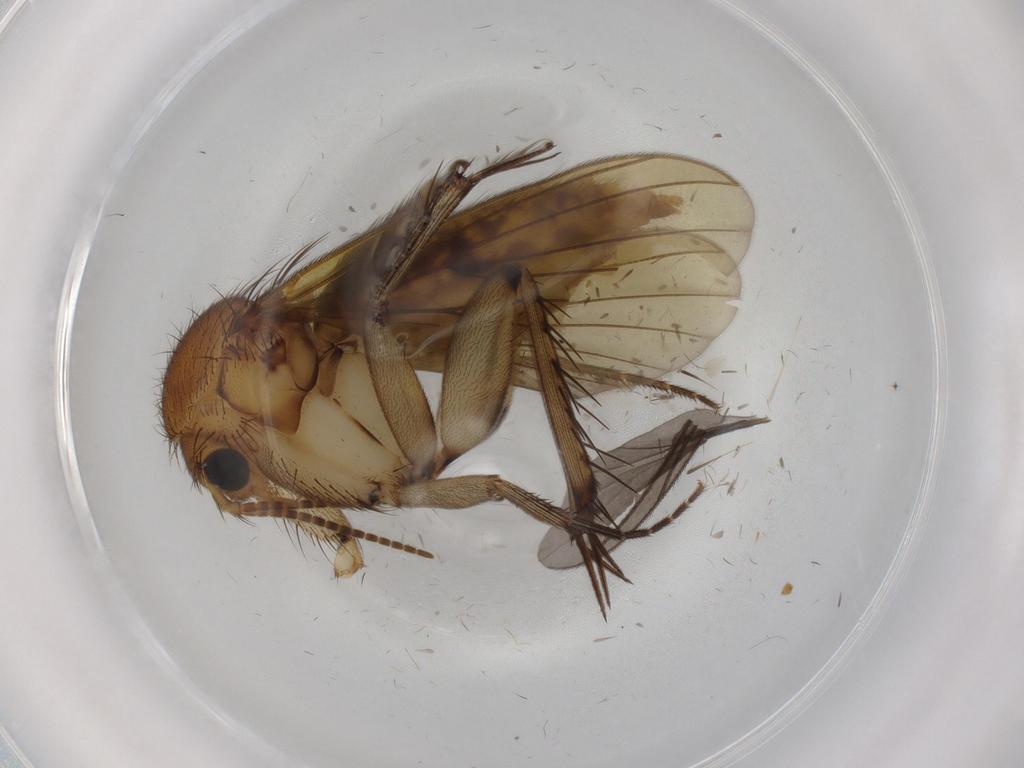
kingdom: Animalia
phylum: Arthropoda
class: Insecta
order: Diptera
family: Sciaridae
